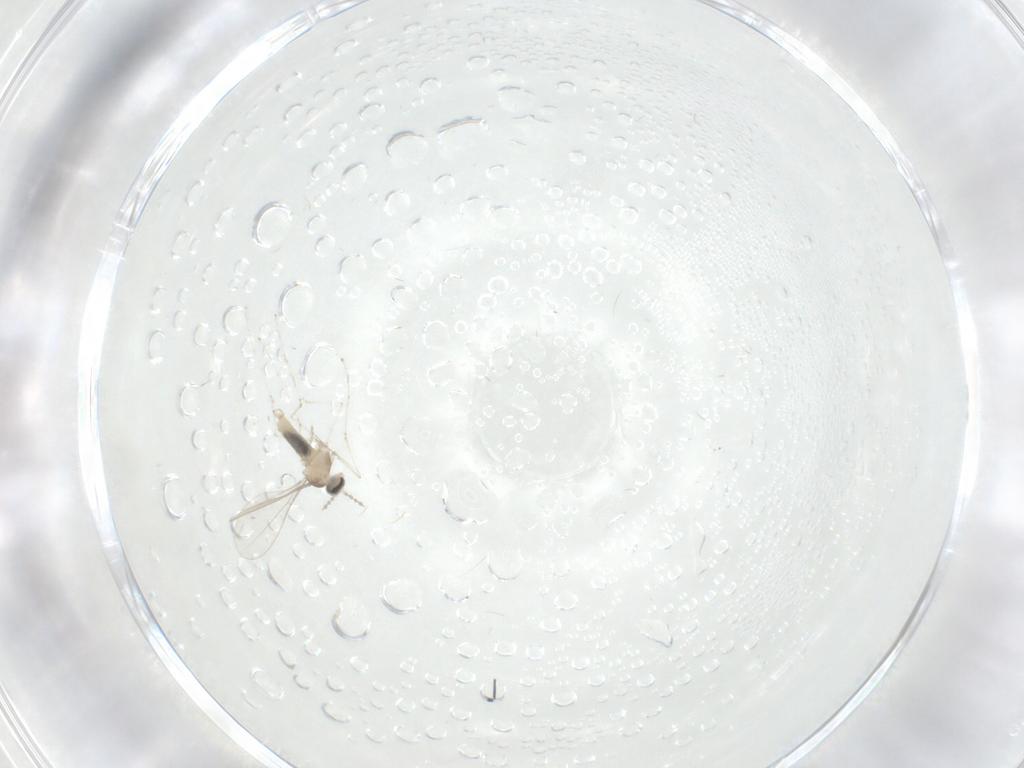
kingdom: Animalia
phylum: Arthropoda
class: Insecta
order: Diptera
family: Chironomidae
